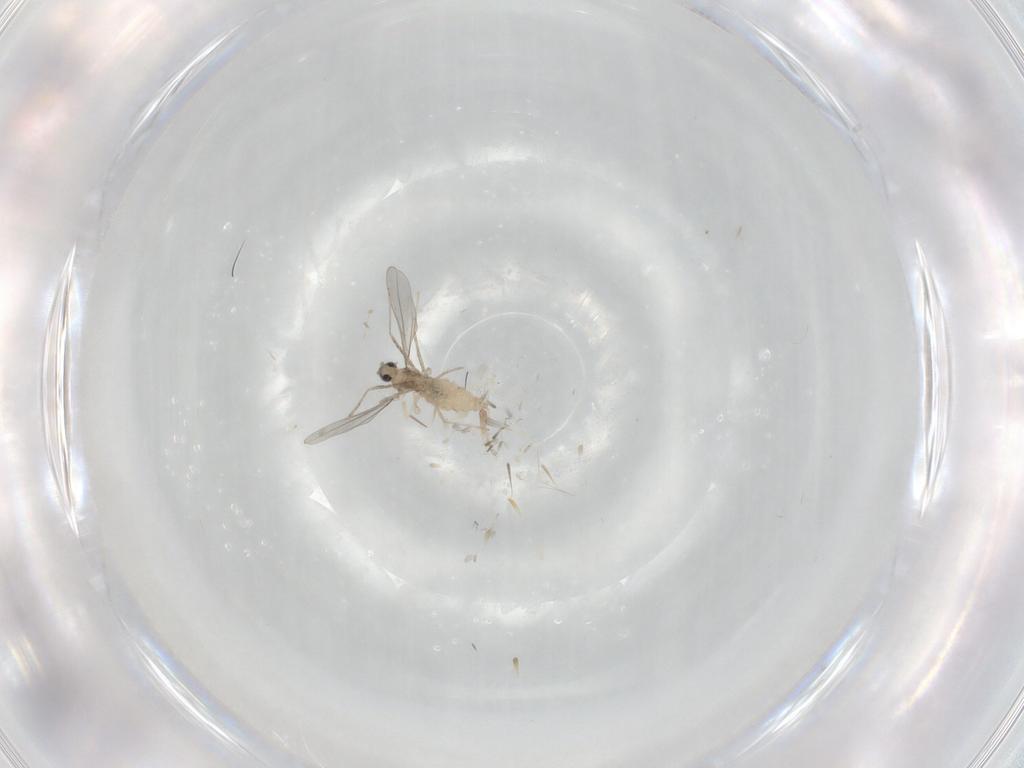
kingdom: Animalia
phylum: Arthropoda
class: Insecta
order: Diptera
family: Cecidomyiidae
